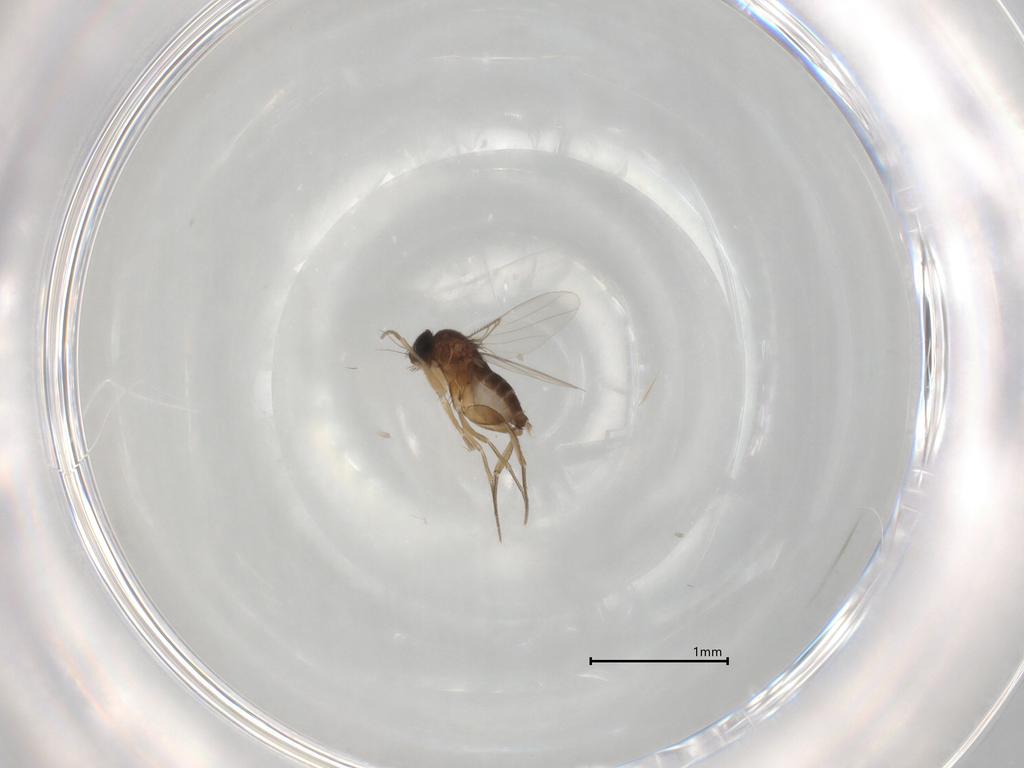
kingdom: Animalia
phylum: Arthropoda
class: Insecta
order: Diptera
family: Phoridae
